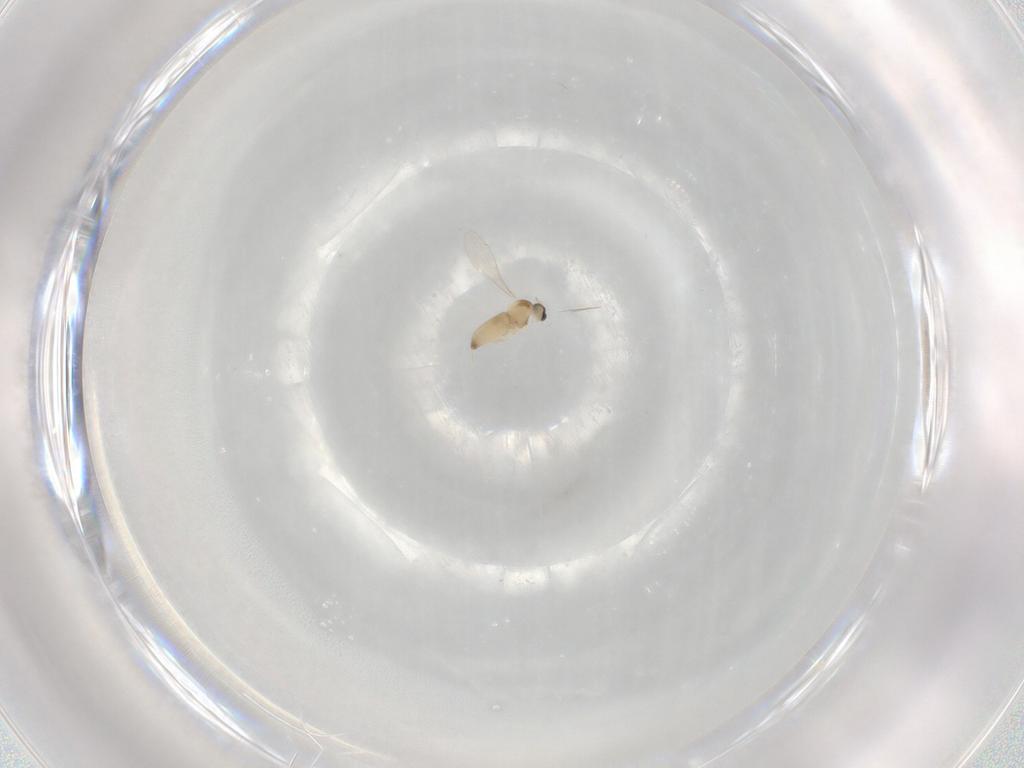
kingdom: Animalia
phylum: Arthropoda
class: Insecta
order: Diptera
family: Cecidomyiidae
